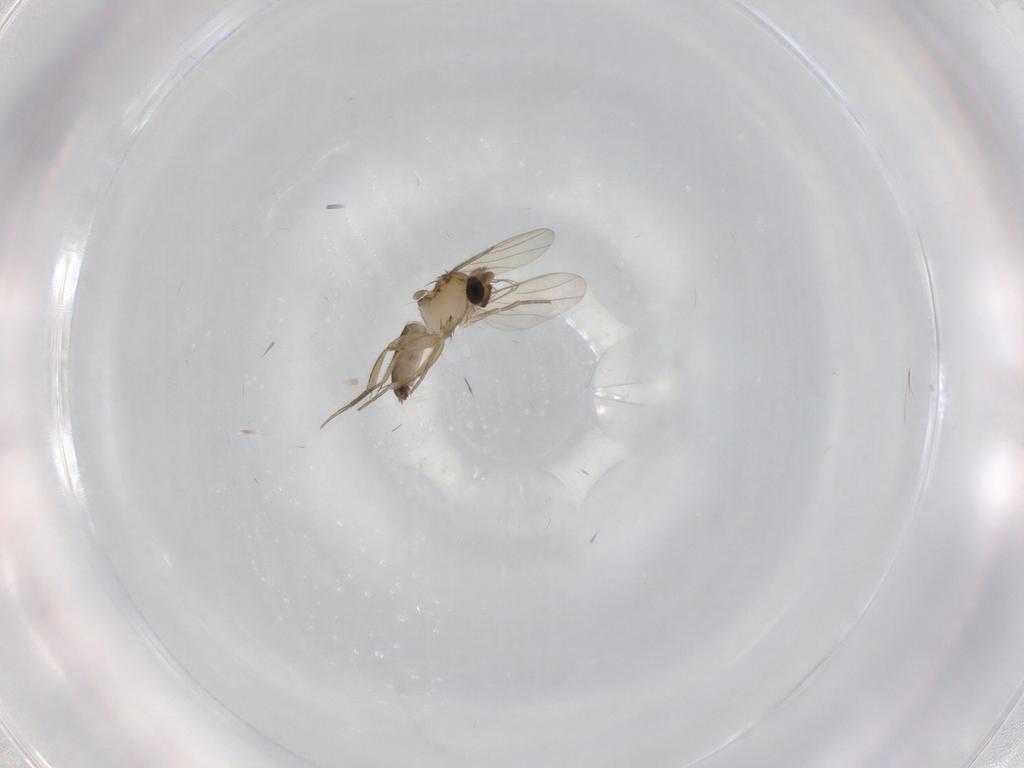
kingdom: Animalia
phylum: Arthropoda
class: Insecta
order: Diptera
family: Phoridae
